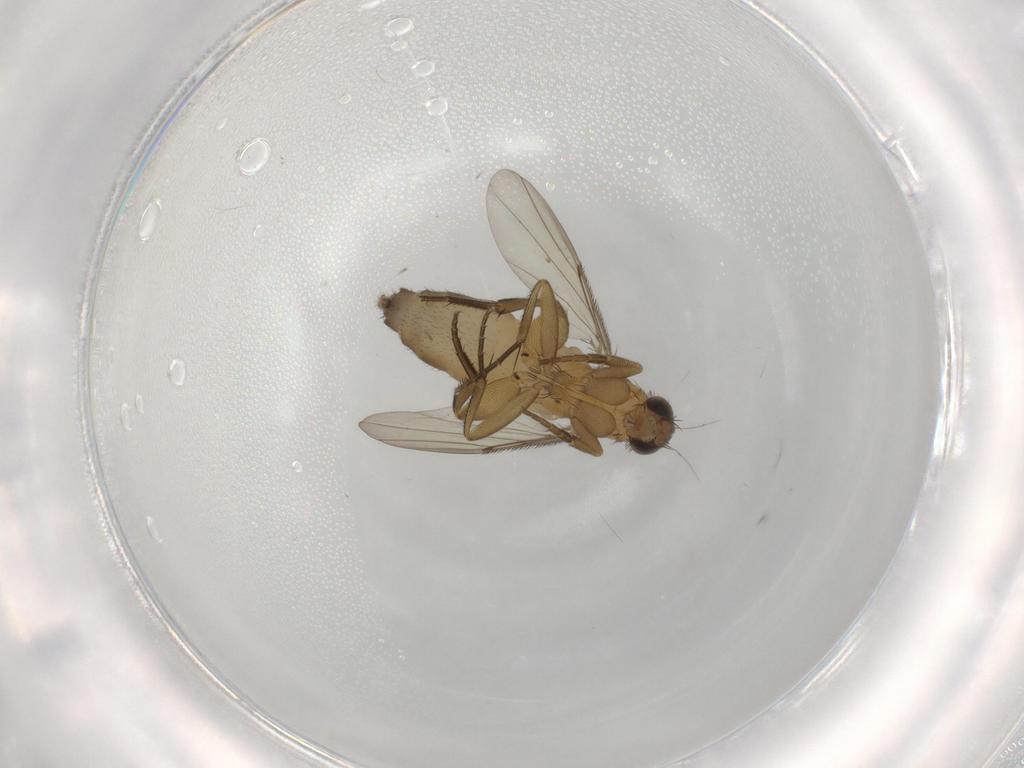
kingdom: Animalia
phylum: Arthropoda
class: Insecta
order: Diptera
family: Phoridae
